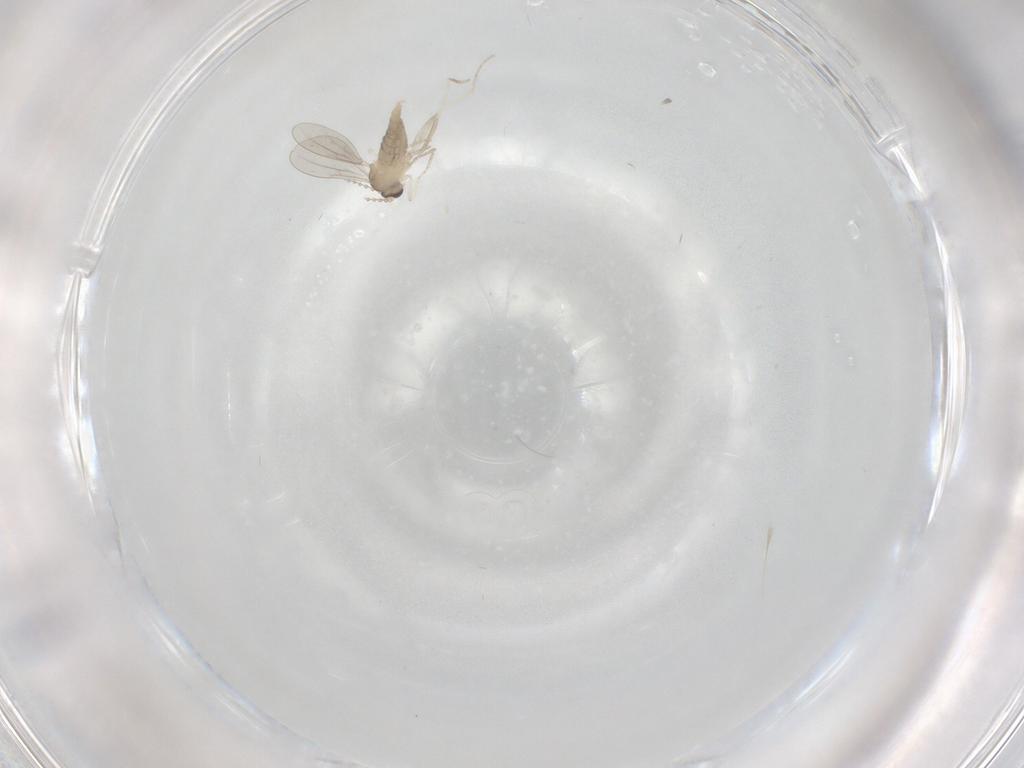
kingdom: Animalia
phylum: Arthropoda
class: Insecta
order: Diptera
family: Cecidomyiidae
